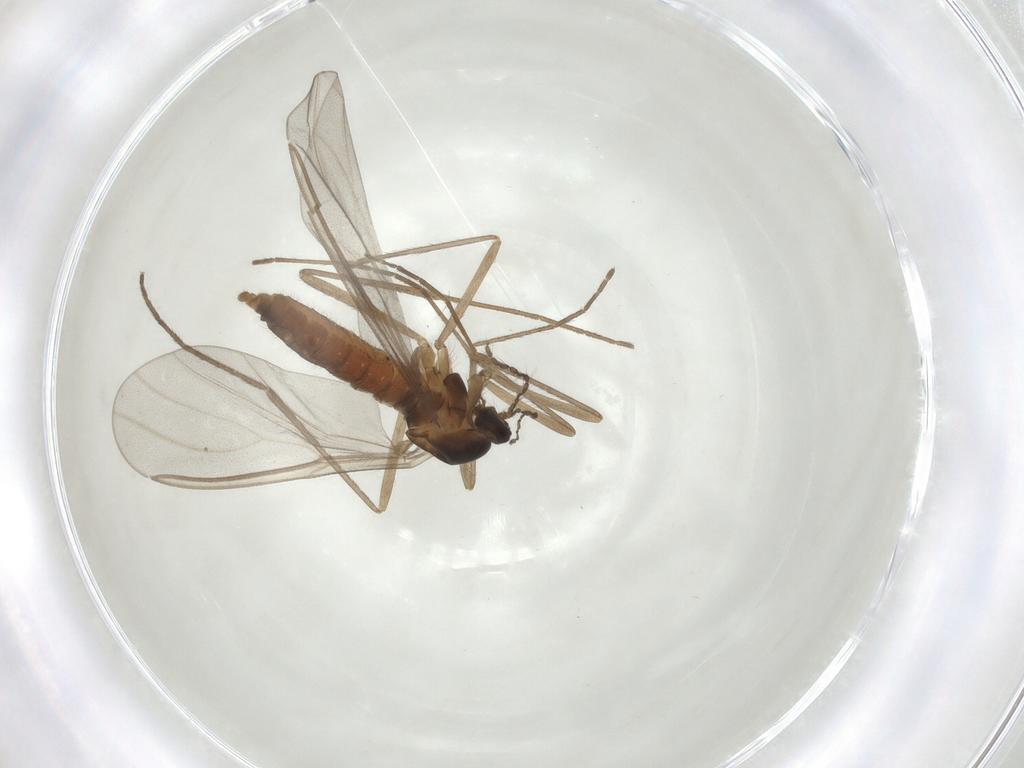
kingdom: Animalia
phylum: Arthropoda
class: Insecta
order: Diptera
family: Cecidomyiidae
